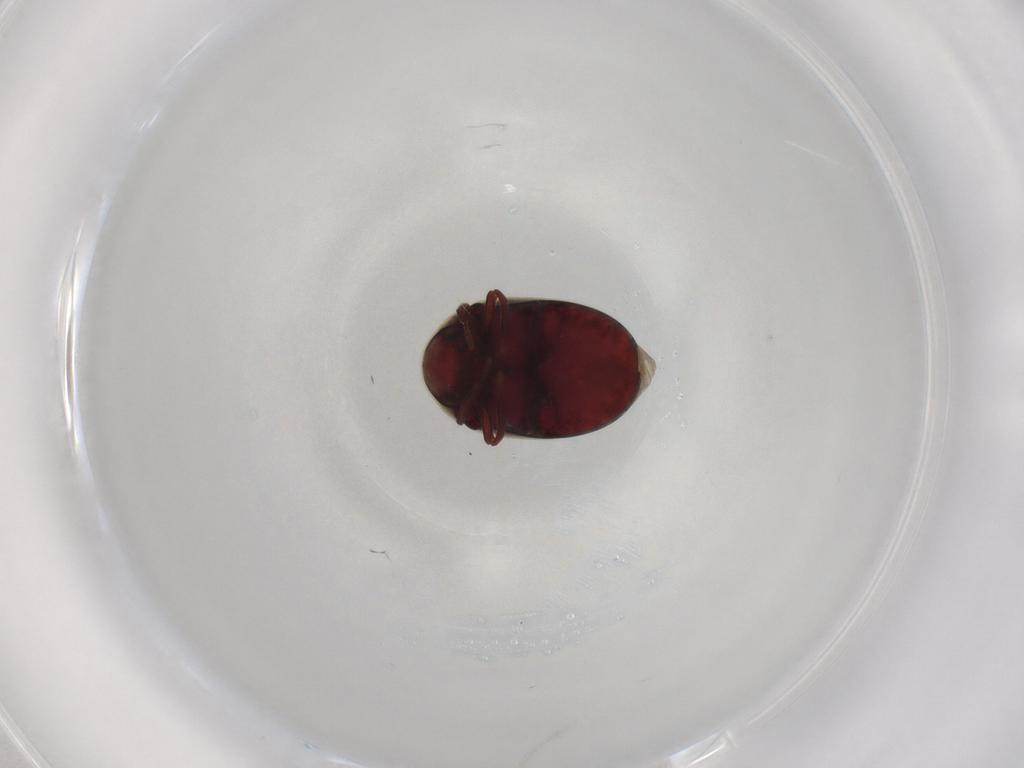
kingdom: Animalia
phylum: Arthropoda
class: Insecta
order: Coleoptera
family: Ptinidae
